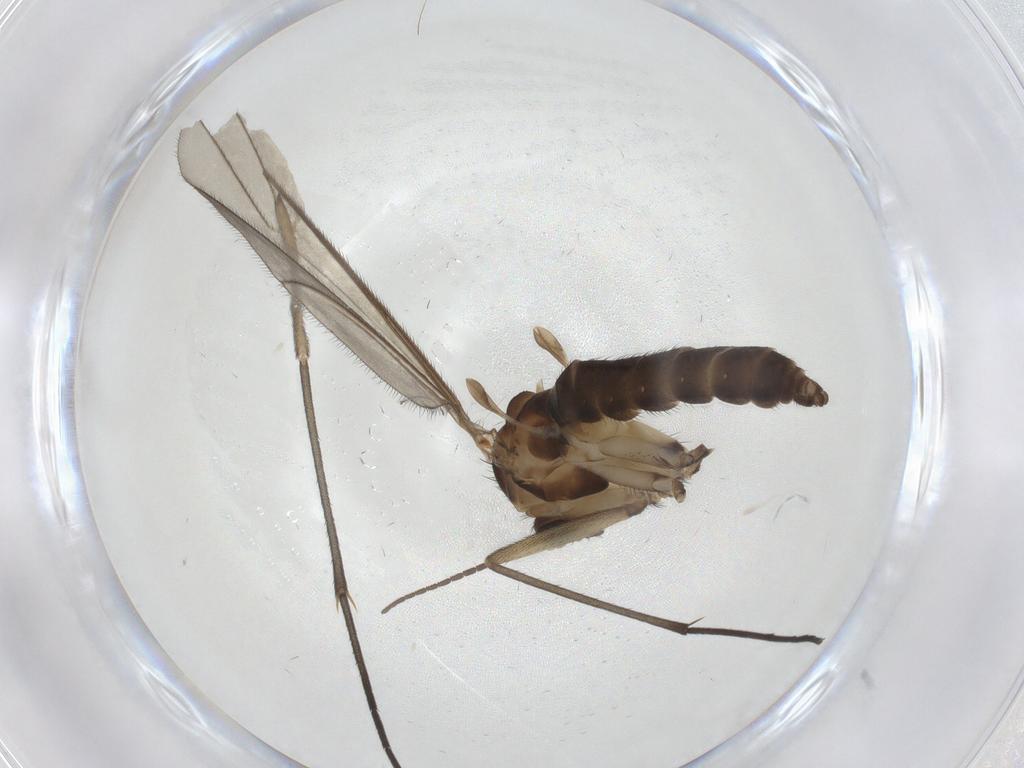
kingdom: Animalia
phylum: Arthropoda
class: Insecta
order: Diptera
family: Sciaridae
